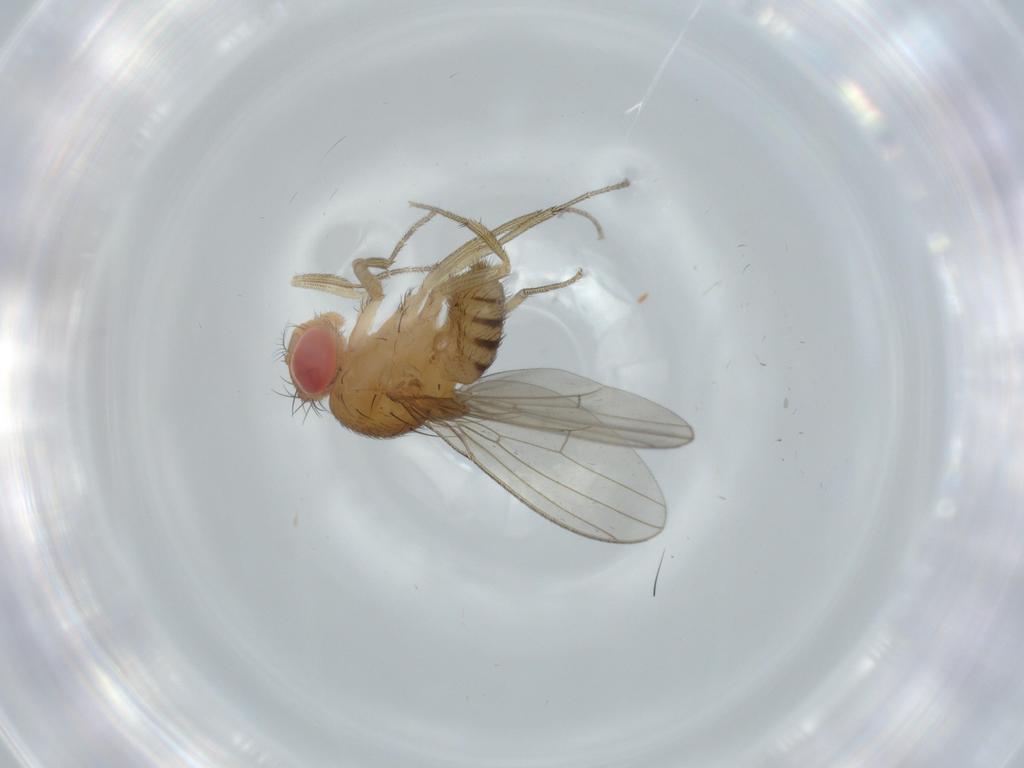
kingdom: Animalia
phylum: Arthropoda
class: Insecta
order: Diptera
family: Drosophilidae
